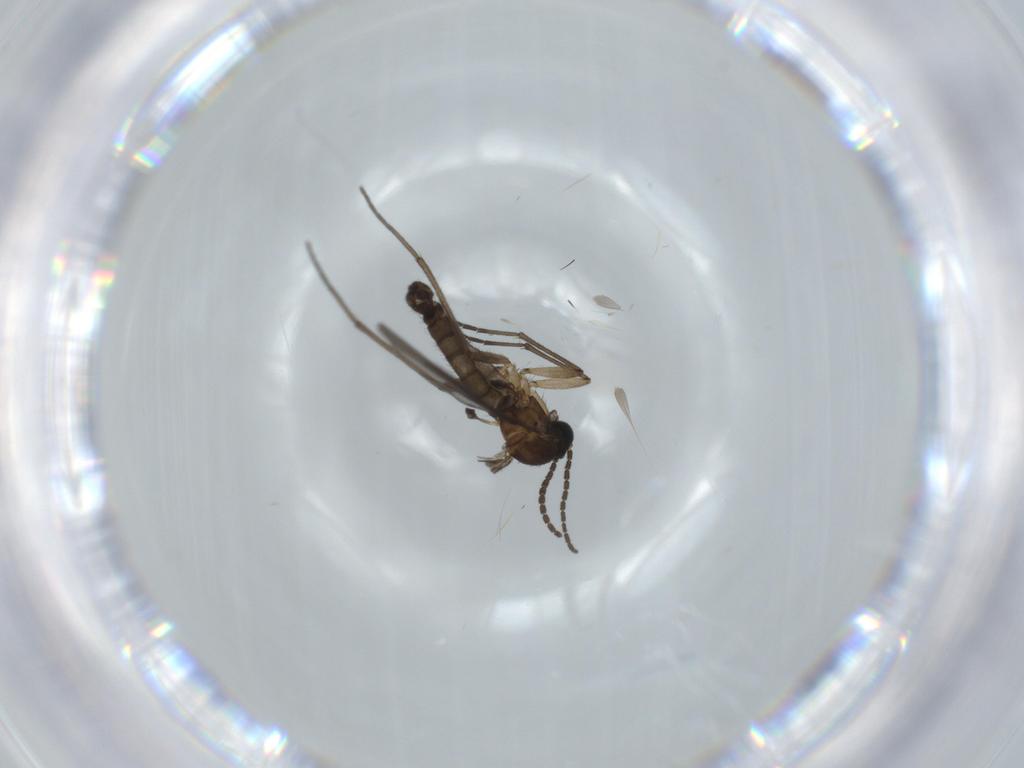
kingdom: Animalia
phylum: Arthropoda
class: Insecta
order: Diptera
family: Sciaridae
